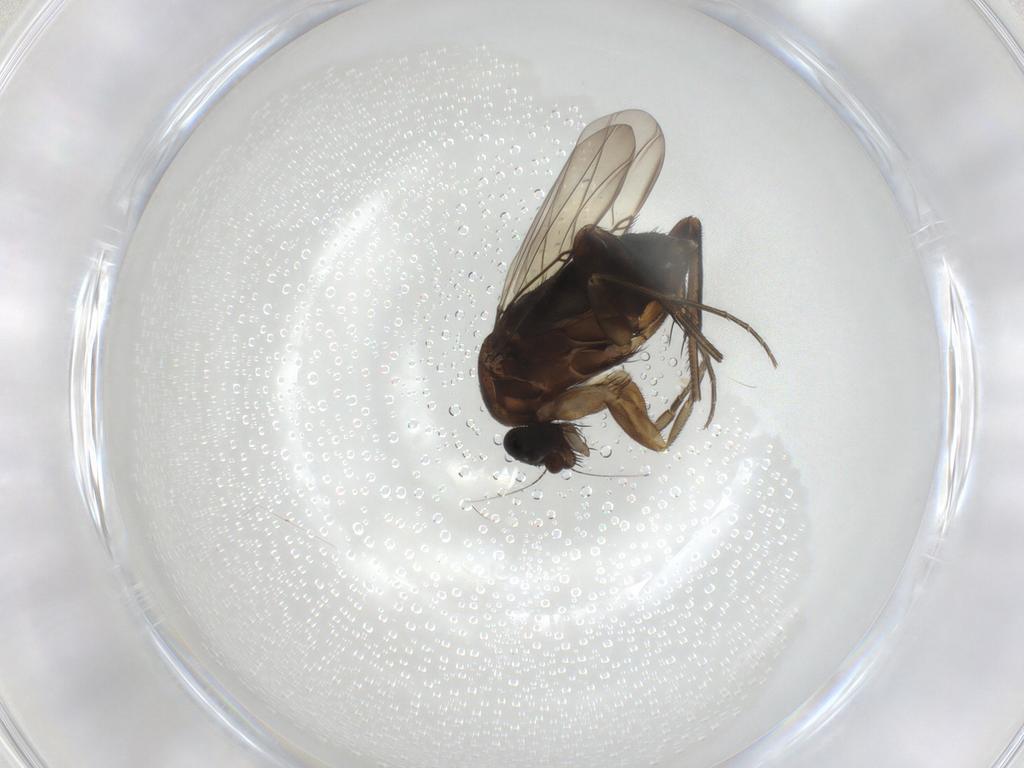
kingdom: Animalia
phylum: Arthropoda
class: Insecta
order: Diptera
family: Phoridae
